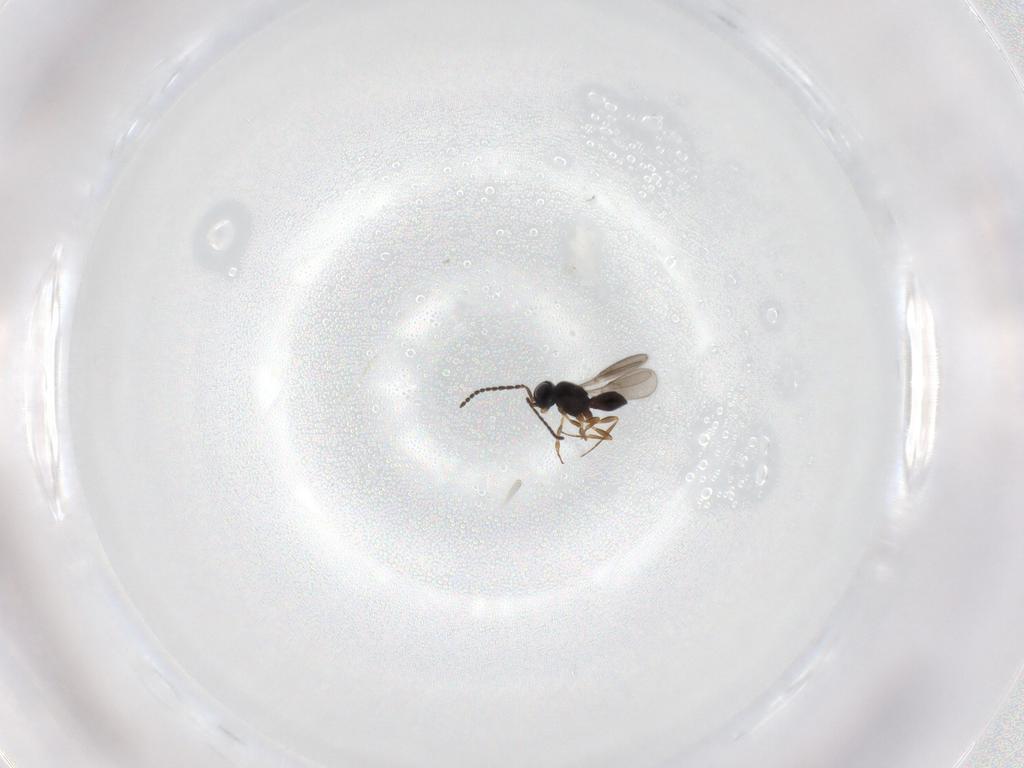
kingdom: Animalia
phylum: Arthropoda
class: Insecta
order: Hymenoptera
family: Scelionidae
